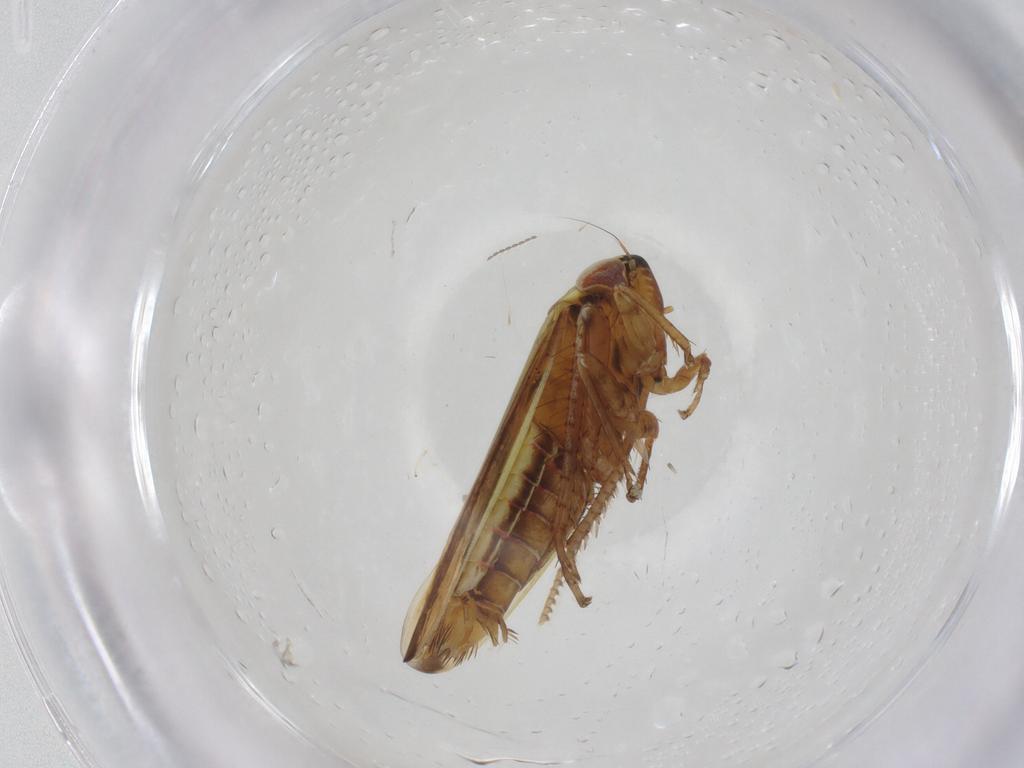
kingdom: Animalia
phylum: Arthropoda
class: Insecta
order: Hemiptera
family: Cicadellidae
